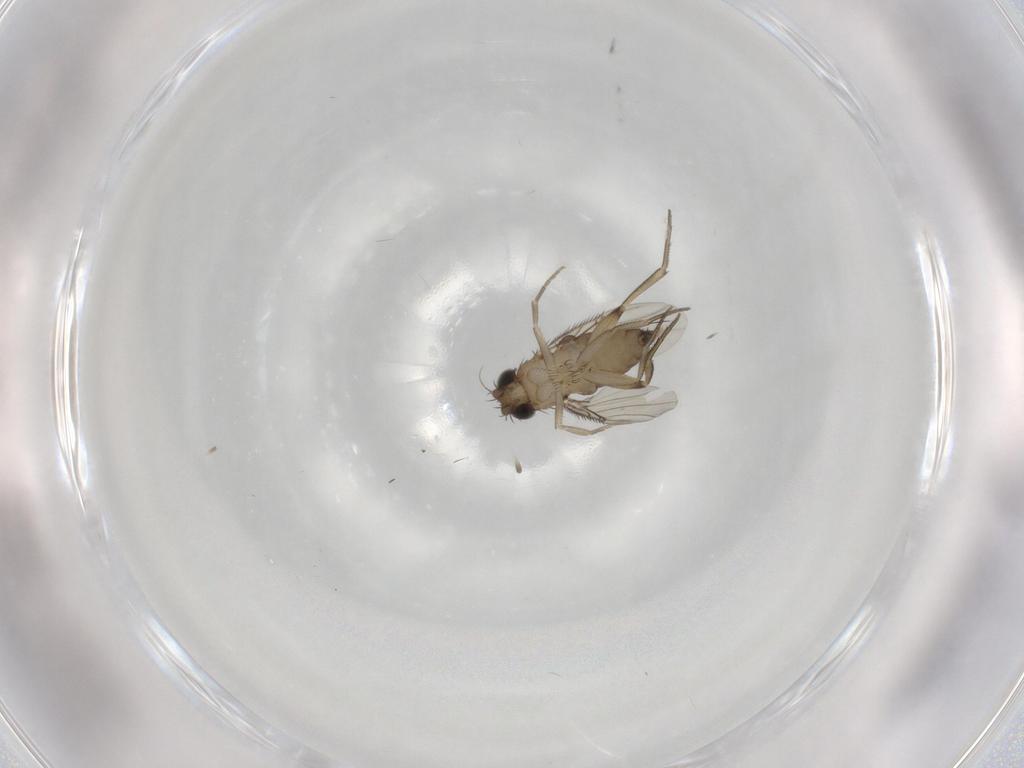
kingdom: Animalia
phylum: Arthropoda
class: Insecta
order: Diptera
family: Phoridae
